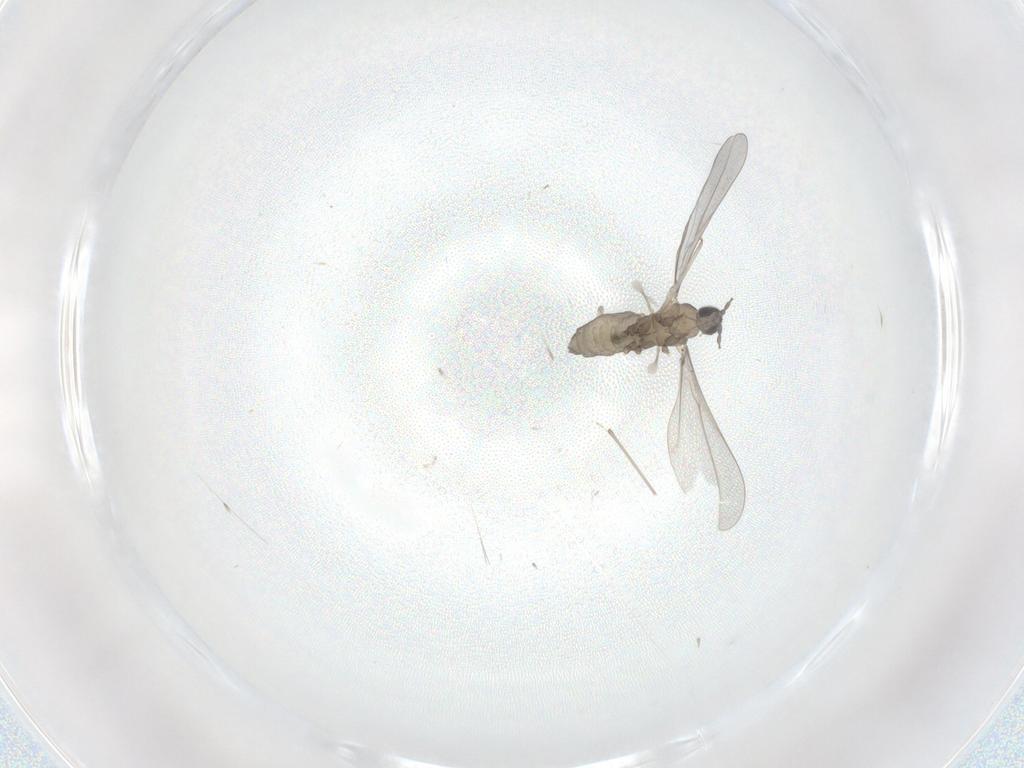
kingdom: Animalia
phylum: Arthropoda
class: Insecta
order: Diptera
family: Cecidomyiidae
